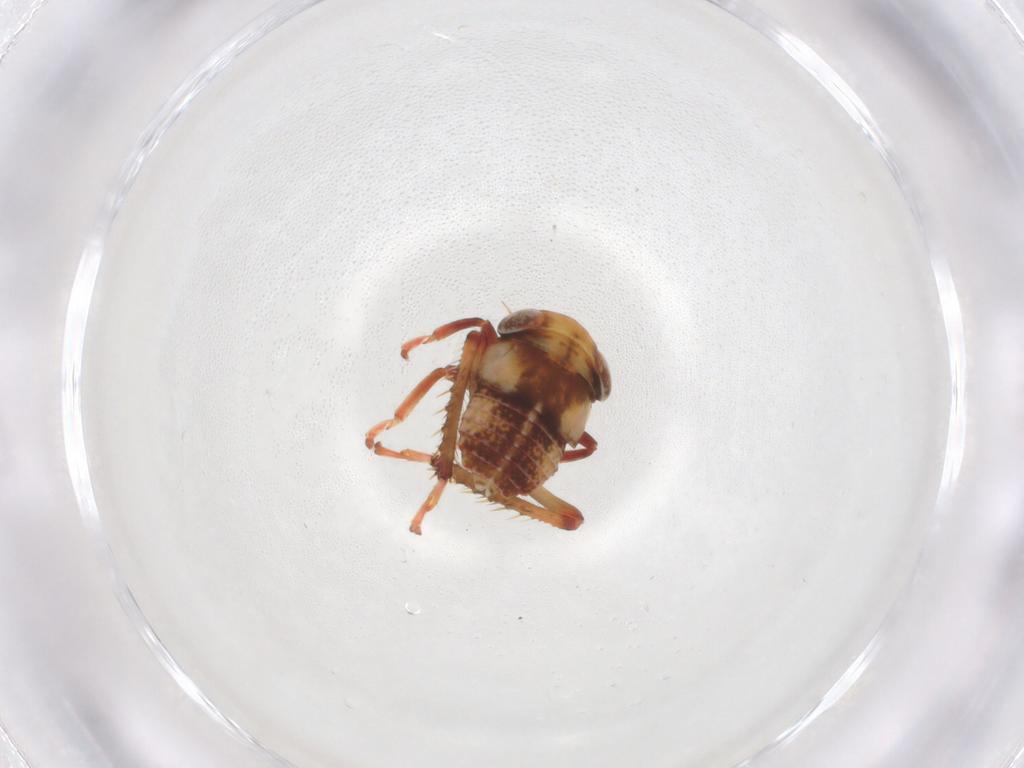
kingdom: Animalia
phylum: Arthropoda
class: Insecta
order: Hemiptera
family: Cicadellidae
